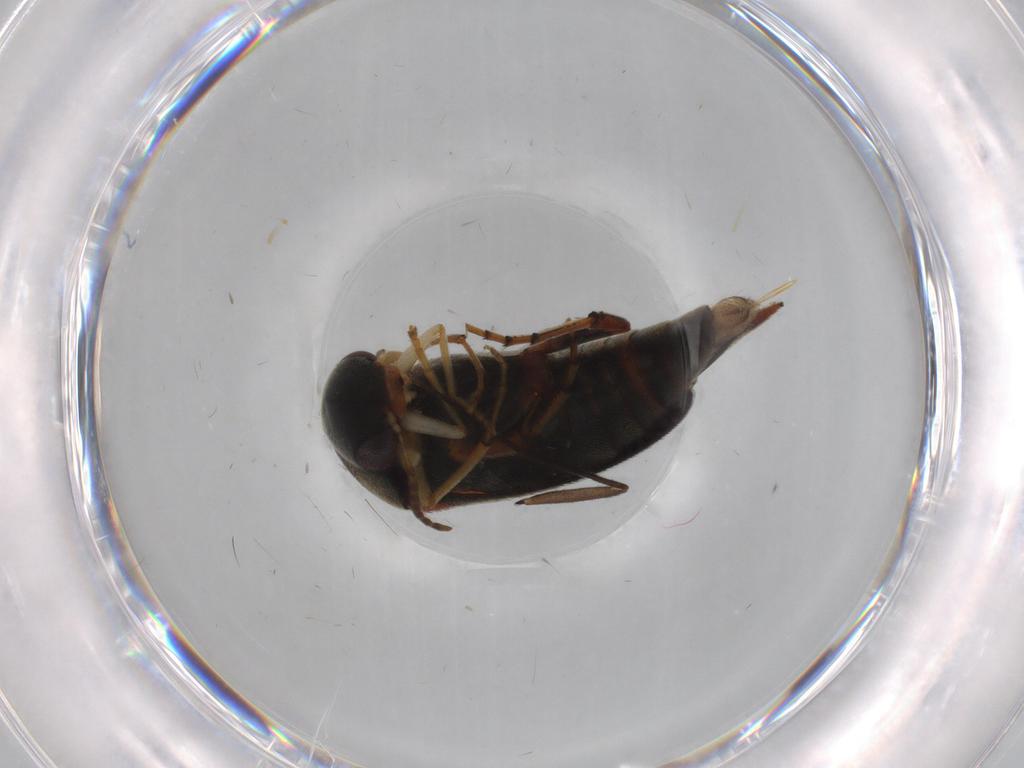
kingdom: Animalia
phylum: Arthropoda
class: Insecta
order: Coleoptera
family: Mordellidae
